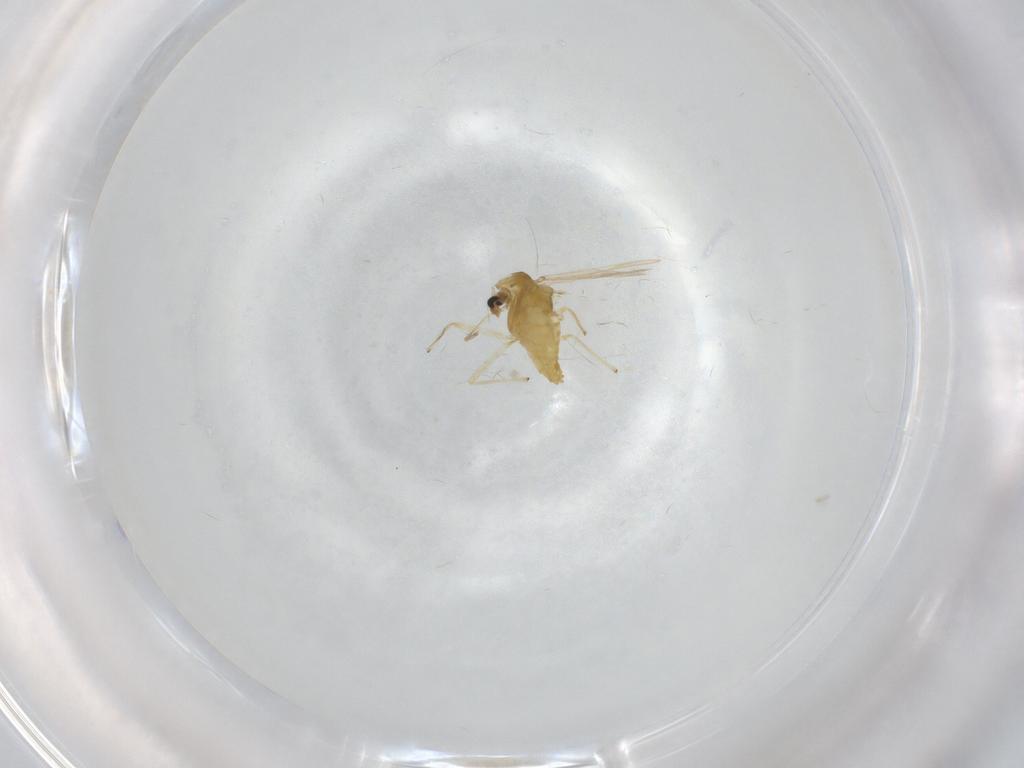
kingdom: Animalia
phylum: Arthropoda
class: Insecta
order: Diptera
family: Chironomidae
